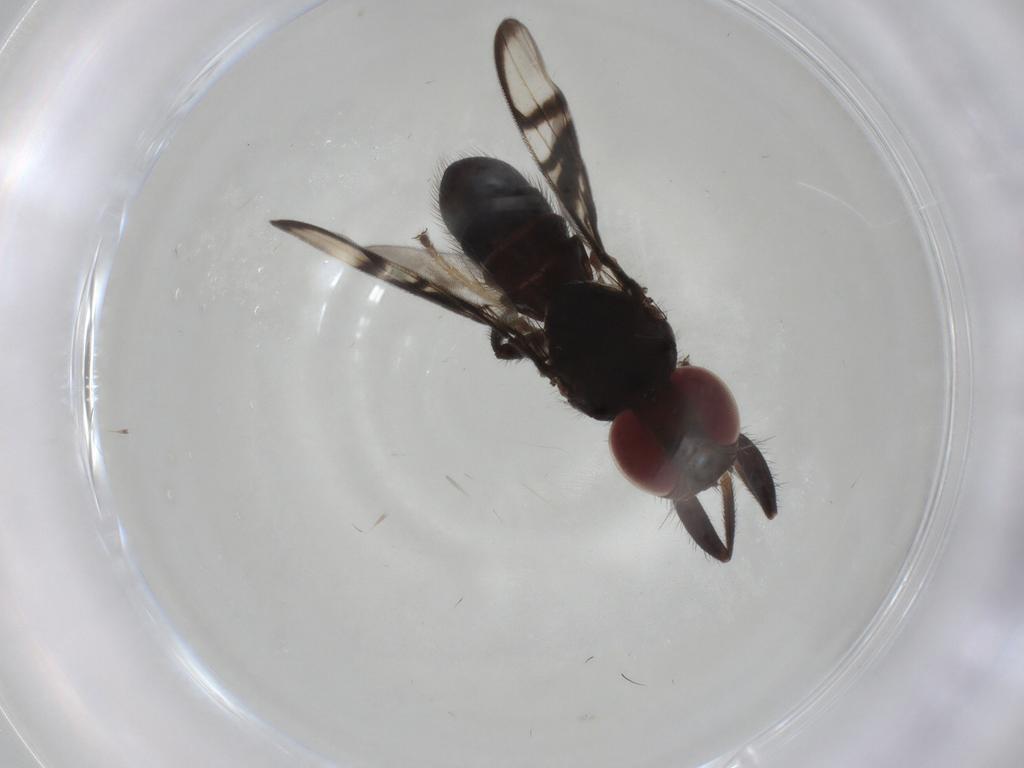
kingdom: Animalia
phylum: Arthropoda
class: Insecta
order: Diptera
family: Platystomatidae
